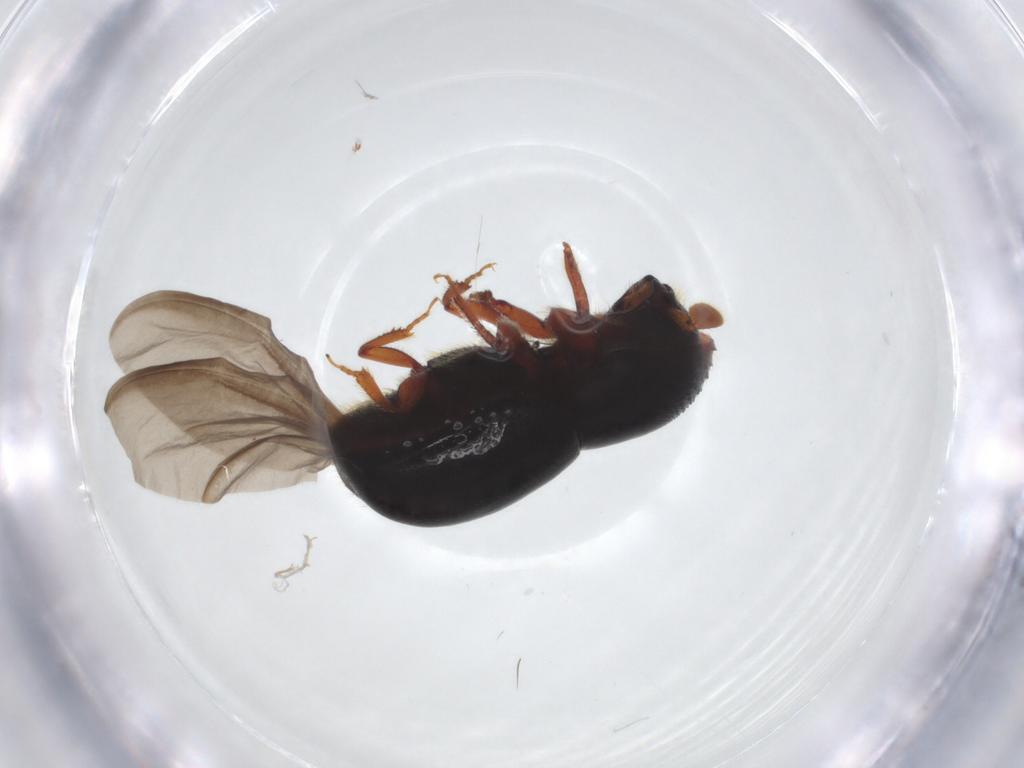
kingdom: Animalia
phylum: Arthropoda
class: Insecta
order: Coleoptera
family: Curculionidae
